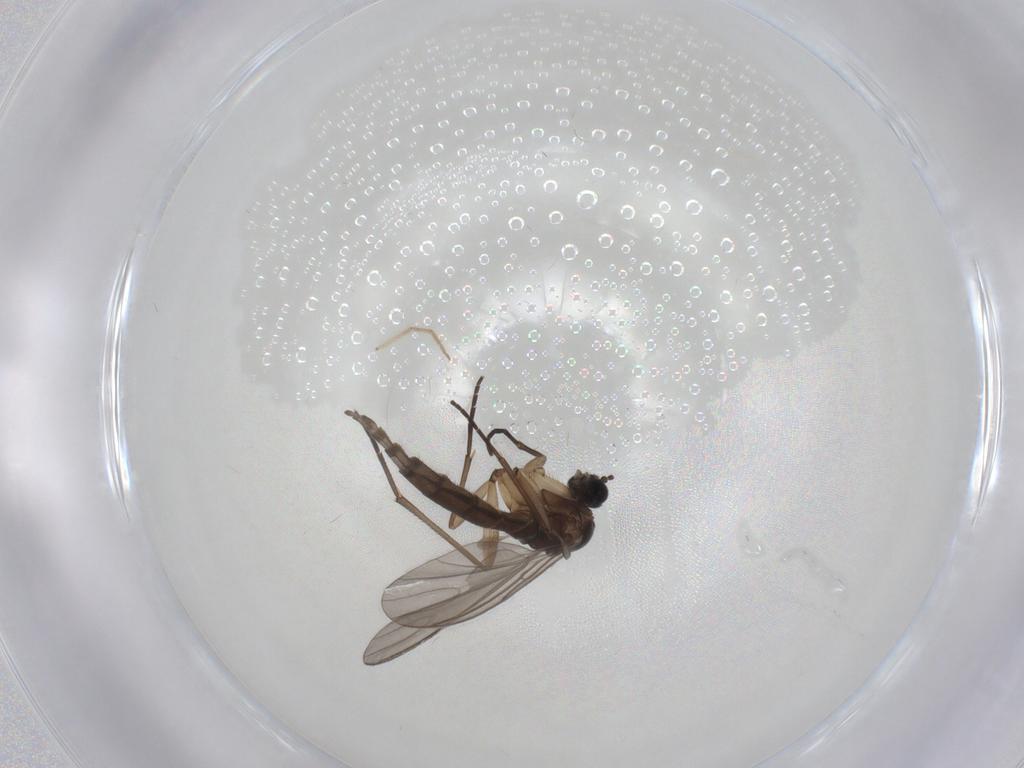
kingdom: Animalia
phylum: Arthropoda
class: Insecta
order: Diptera
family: Sciaridae
